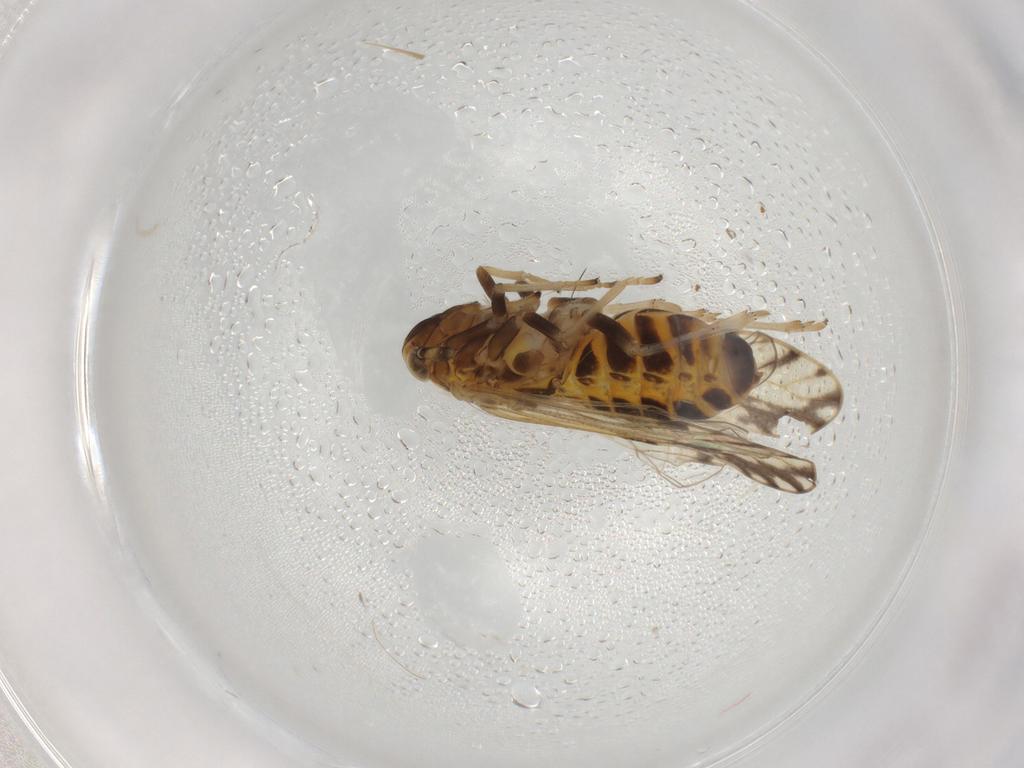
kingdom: Animalia
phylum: Arthropoda
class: Insecta
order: Hemiptera
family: Delphacidae
